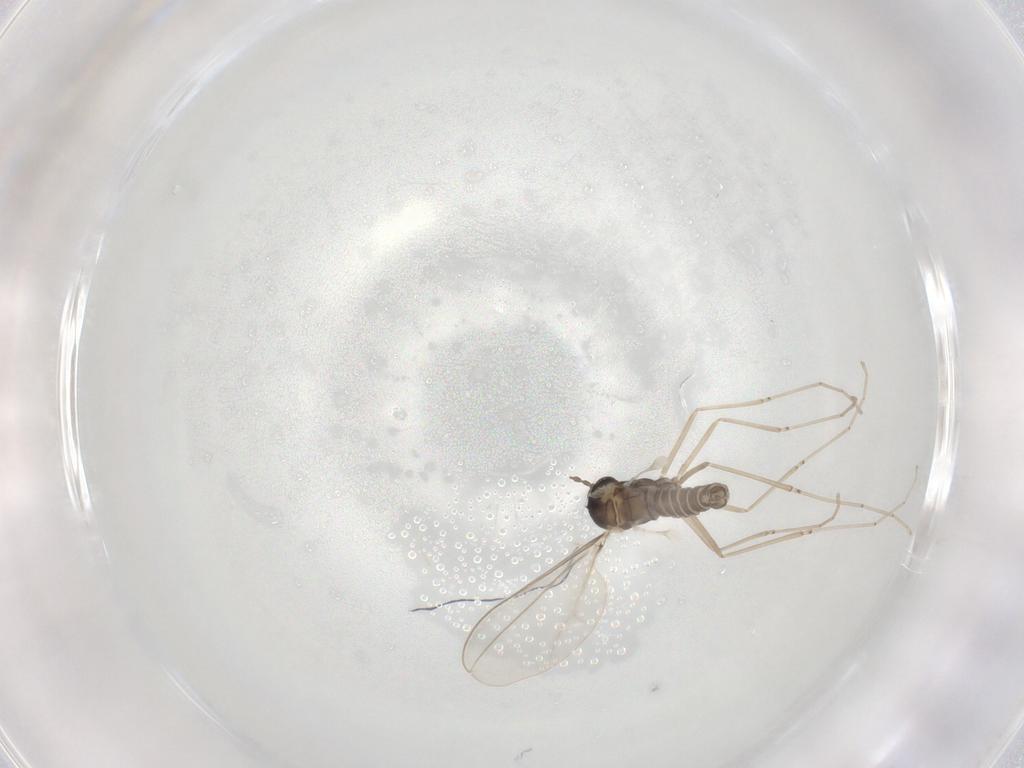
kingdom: Animalia
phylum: Arthropoda
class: Insecta
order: Diptera
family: Cecidomyiidae
